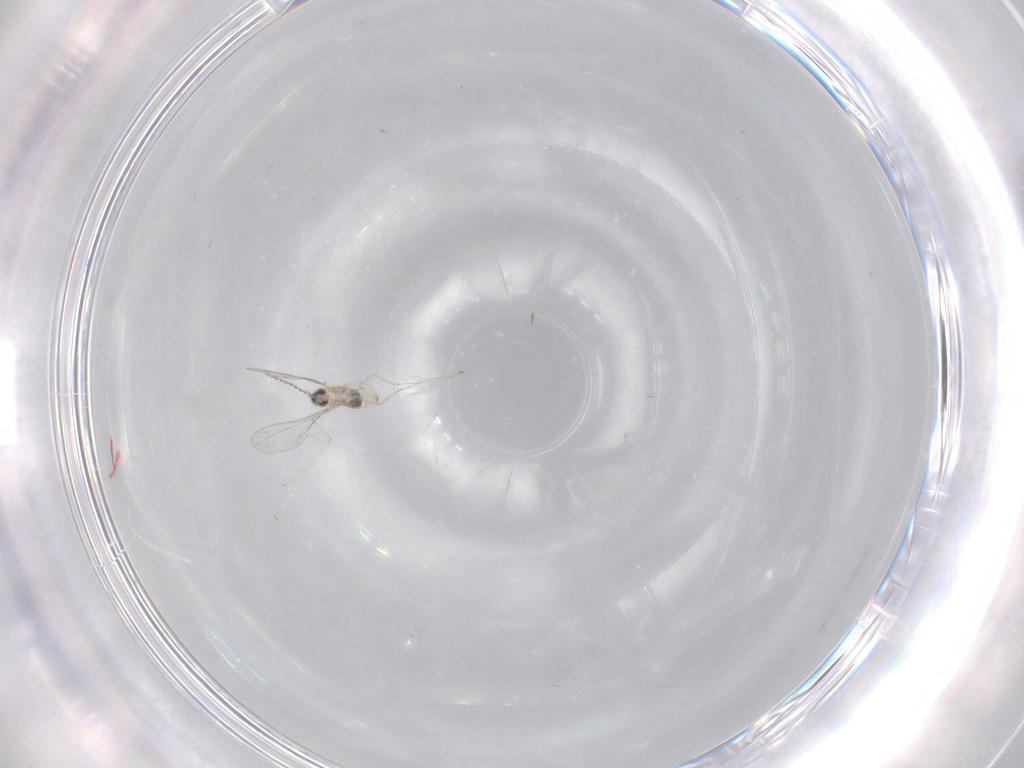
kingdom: Animalia
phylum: Arthropoda
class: Insecta
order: Diptera
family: Cecidomyiidae
